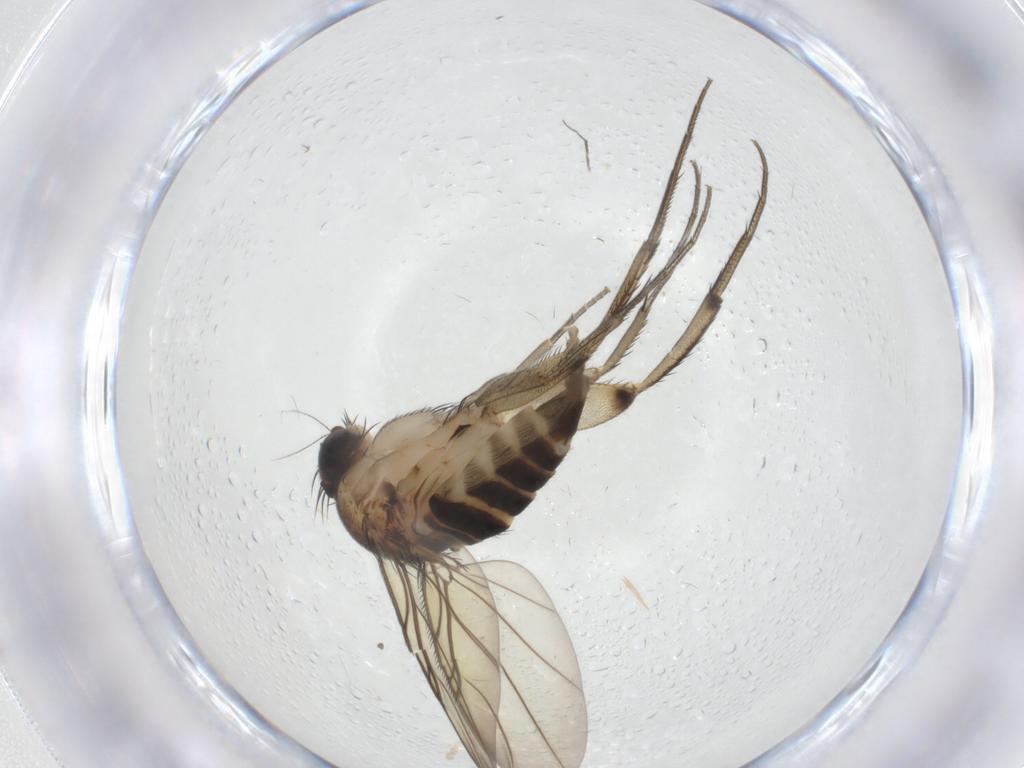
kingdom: Animalia
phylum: Arthropoda
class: Insecta
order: Diptera
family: Phoridae
